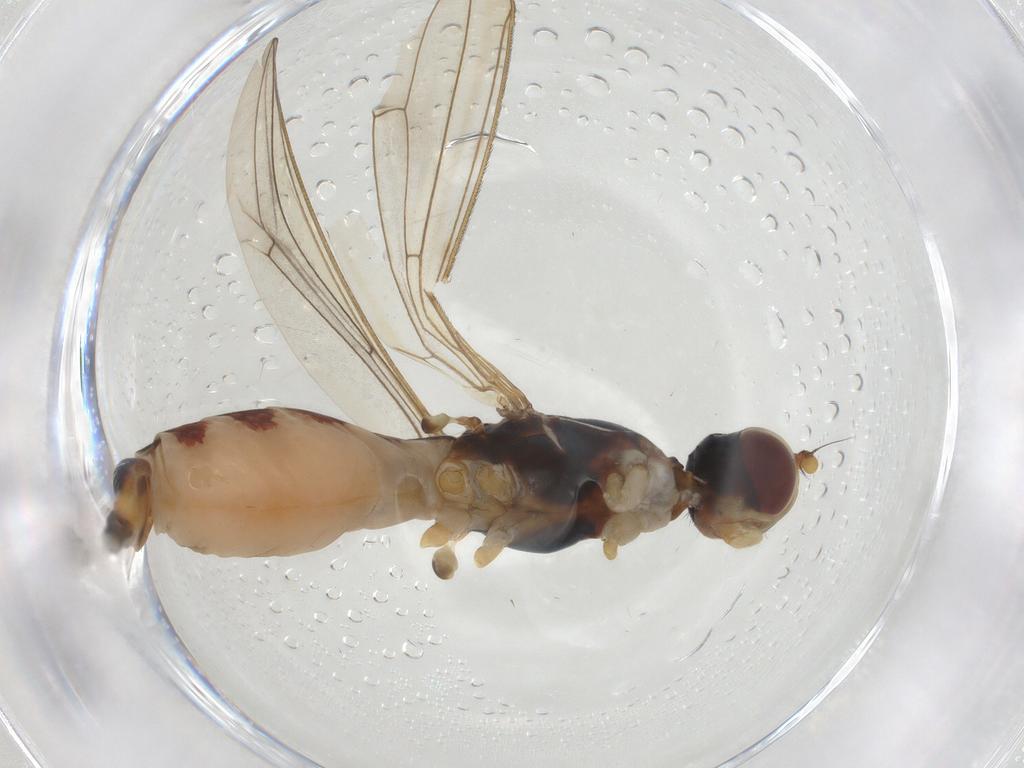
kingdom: Animalia
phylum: Arthropoda
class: Insecta
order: Diptera
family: Micropezidae
